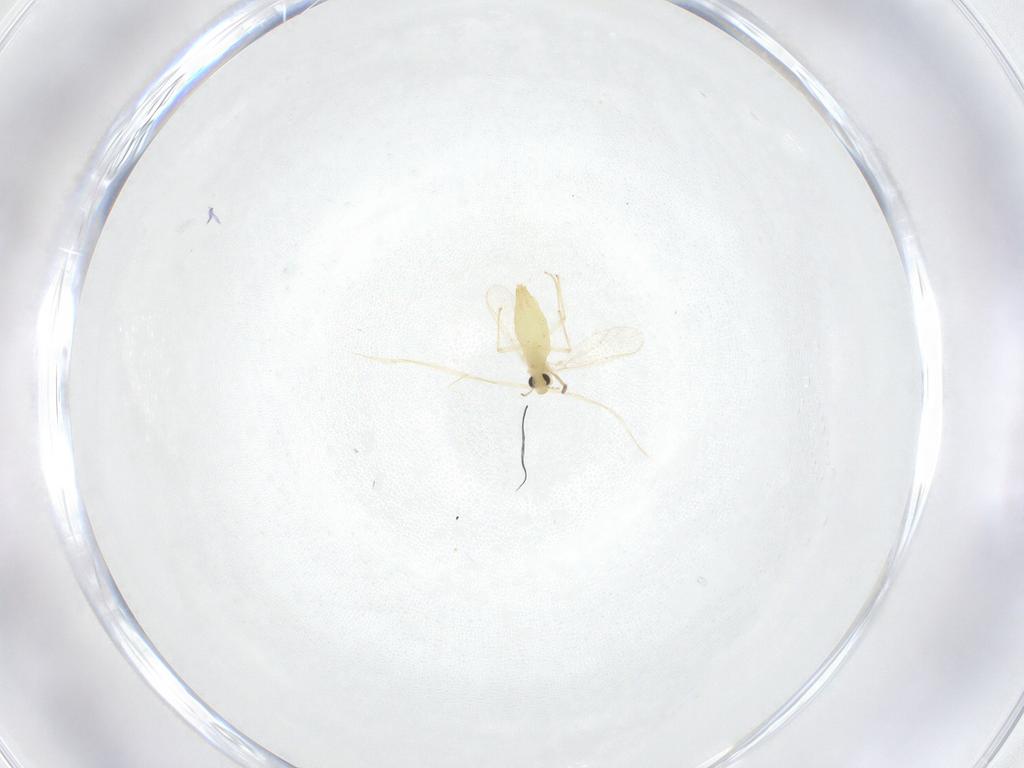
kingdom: Animalia
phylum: Arthropoda
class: Insecta
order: Diptera
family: Chironomidae
